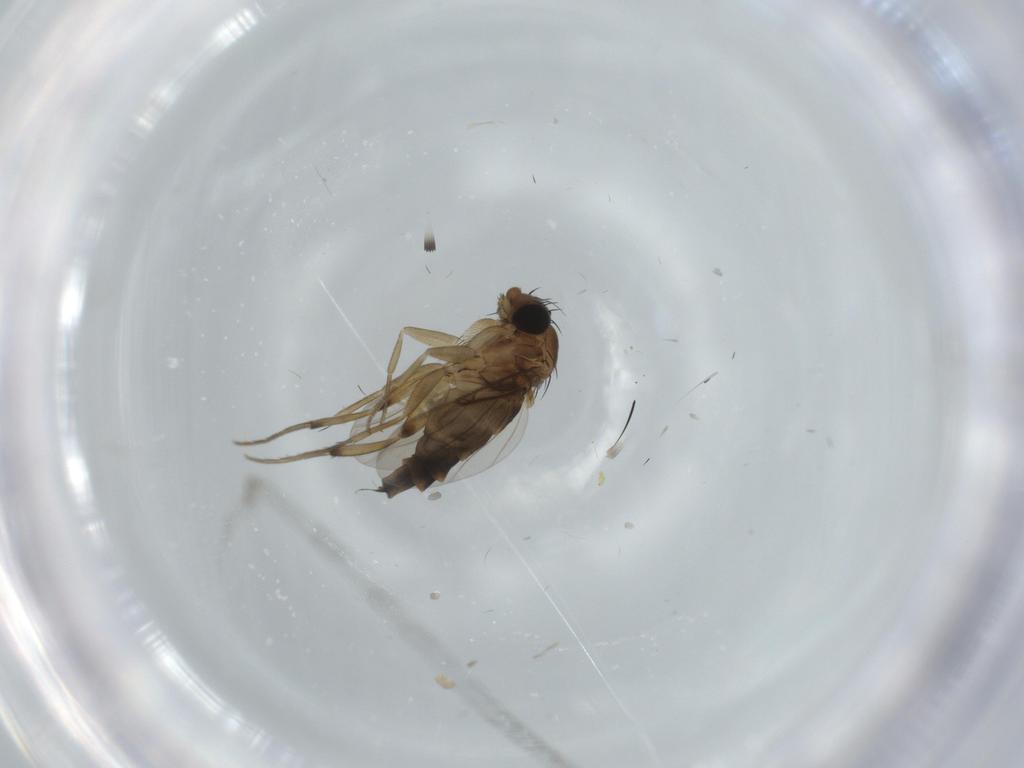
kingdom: Animalia
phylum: Arthropoda
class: Insecta
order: Diptera
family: Phoridae
